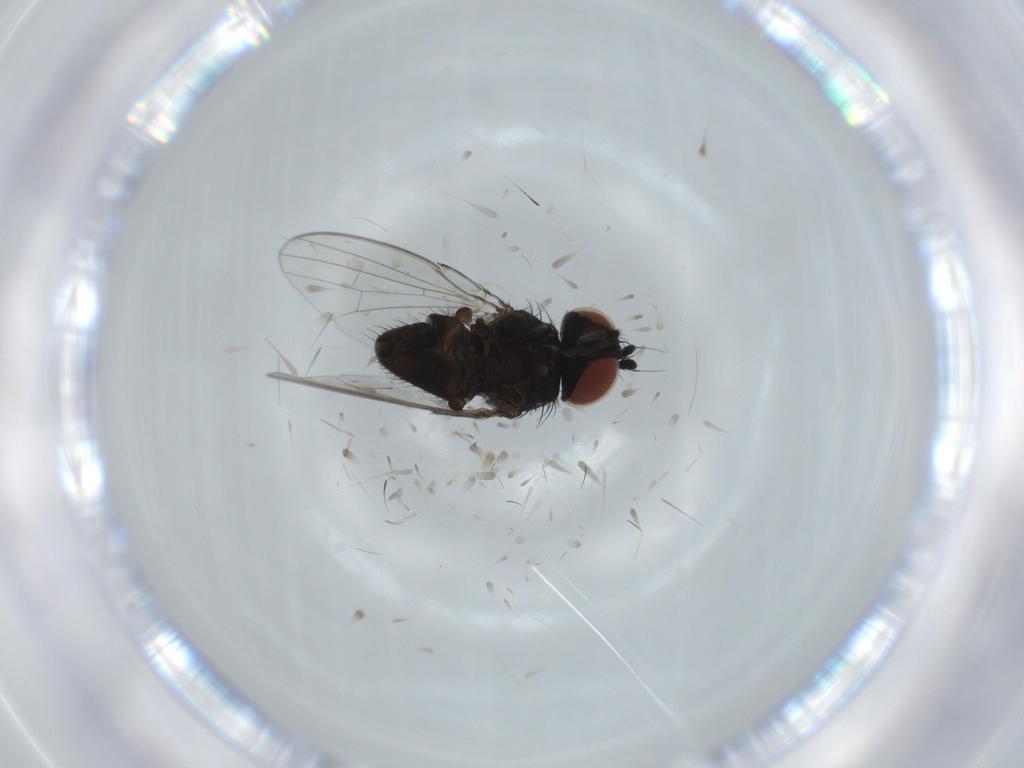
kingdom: Animalia
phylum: Arthropoda
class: Insecta
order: Diptera
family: Milichiidae
